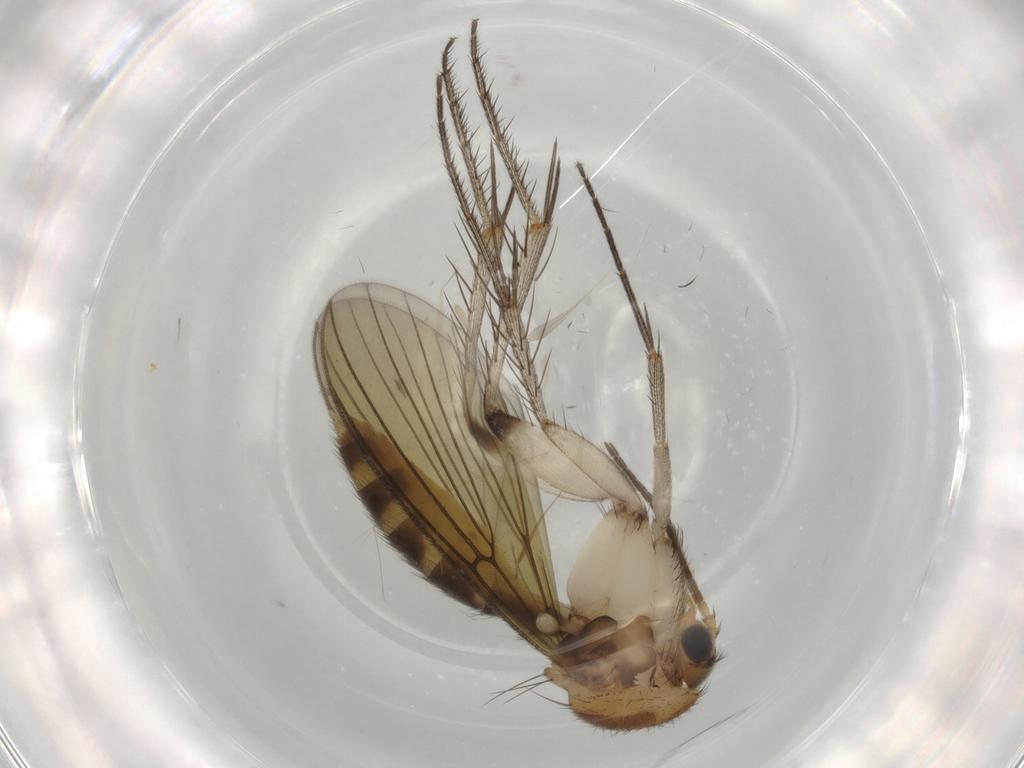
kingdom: Animalia
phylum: Arthropoda
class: Insecta
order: Diptera
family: Mycetophilidae
